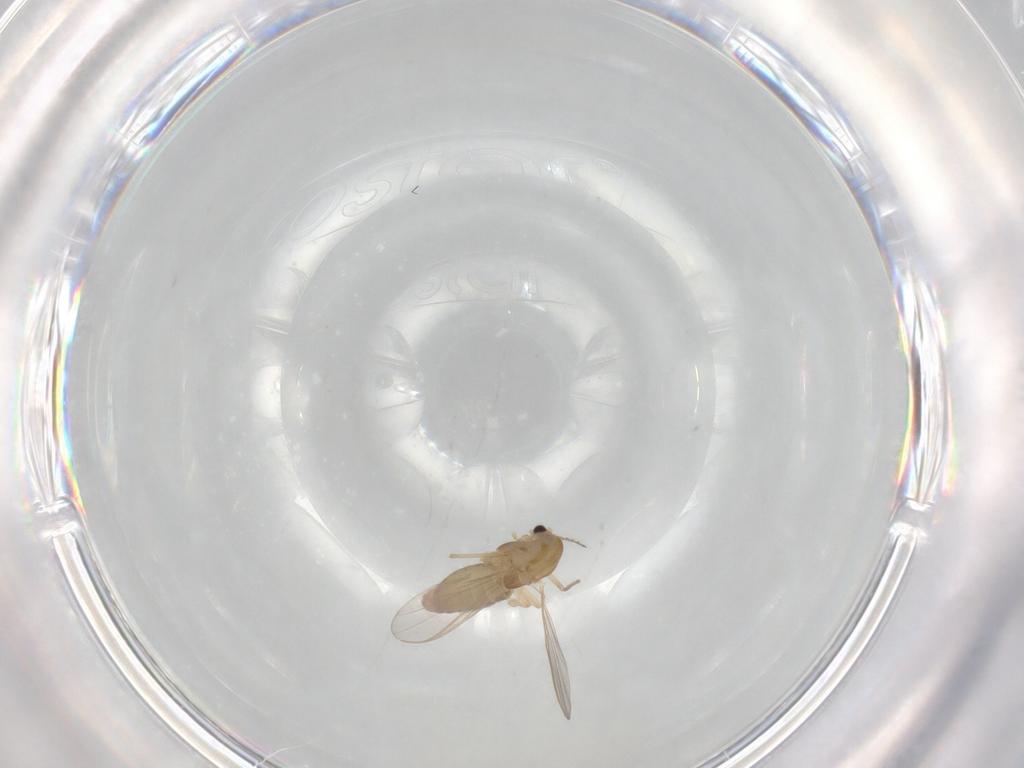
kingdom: Animalia
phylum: Arthropoda
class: Insecta
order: Diptera
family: Chironomidae
